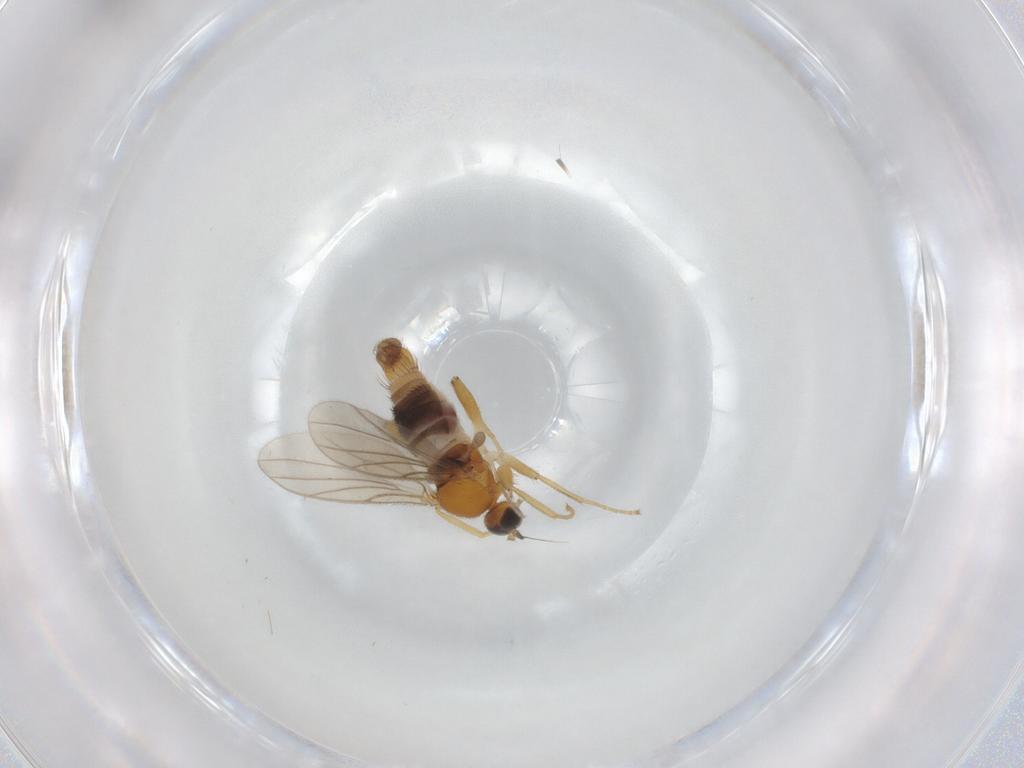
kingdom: Animalia
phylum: Arthropoda
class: Insecta
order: Diptera
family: Hybotidae
